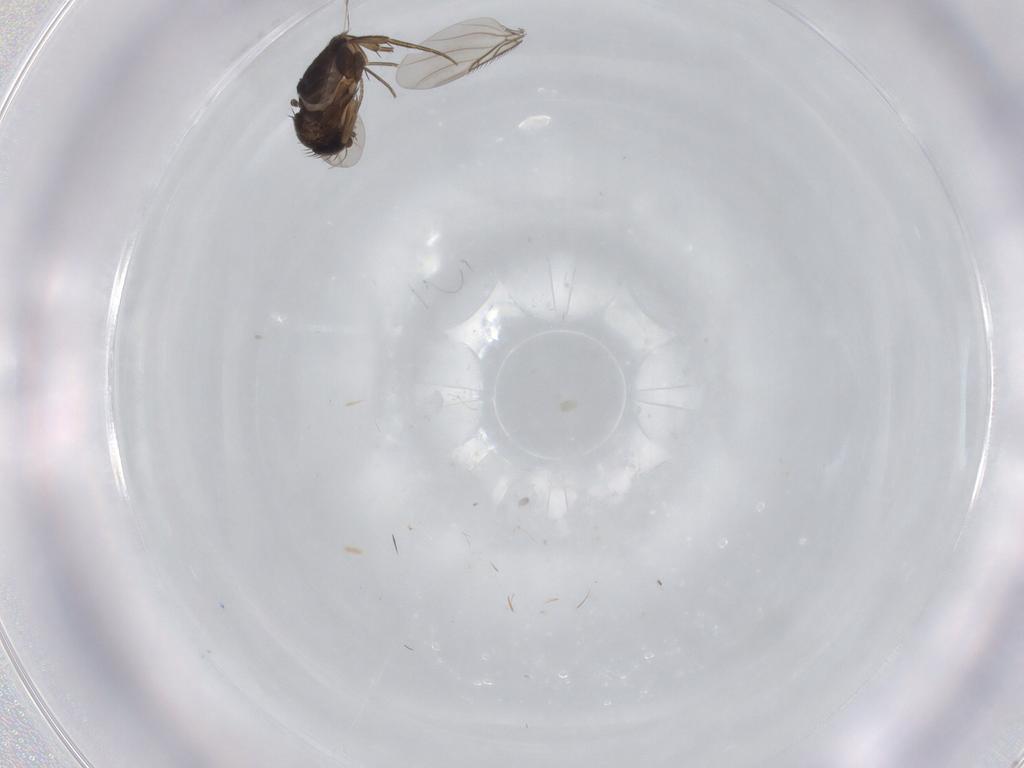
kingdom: Animalia
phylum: Arthropoda
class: Insecta
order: Diptera
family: Phoridae
